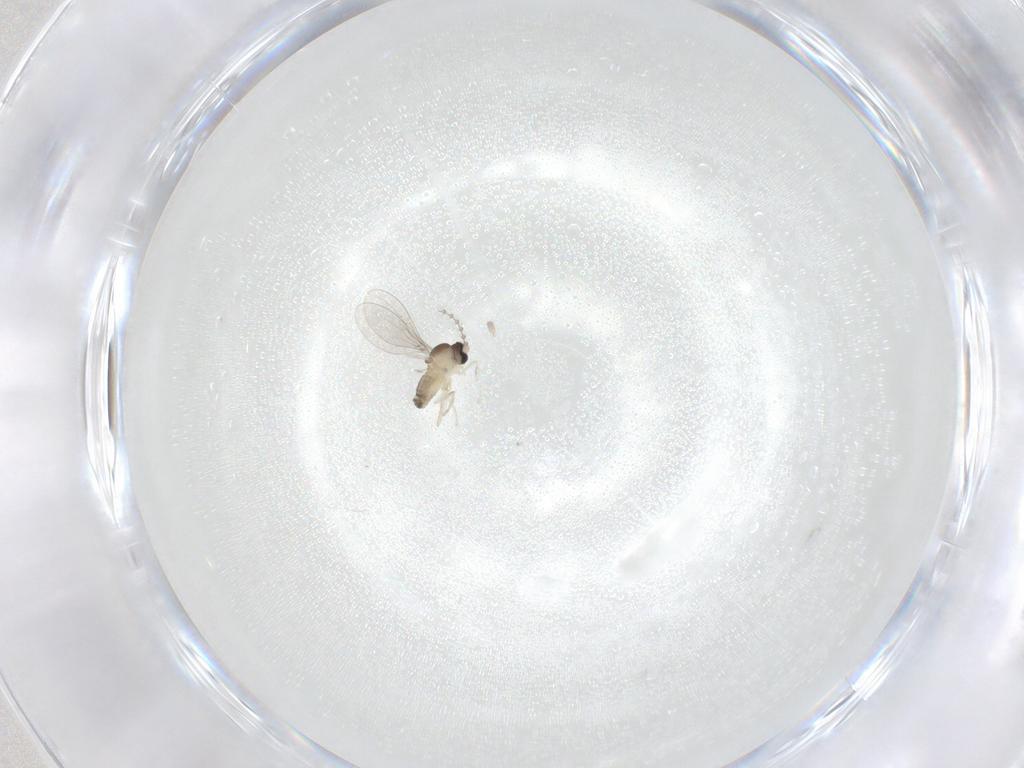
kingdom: Animalia
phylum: Arthropoda
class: Insecta
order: Diptera
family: Cecidomyiidae
